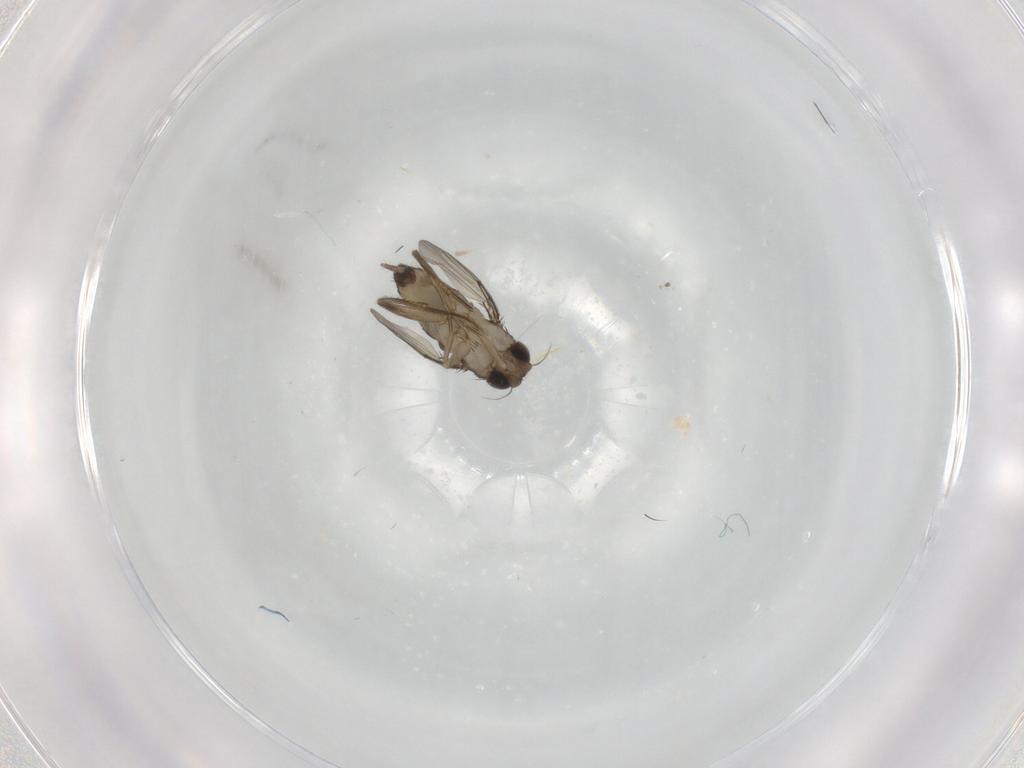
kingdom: Animalia
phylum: Arthropoda
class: Insecta
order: Diptera
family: Phoridae
